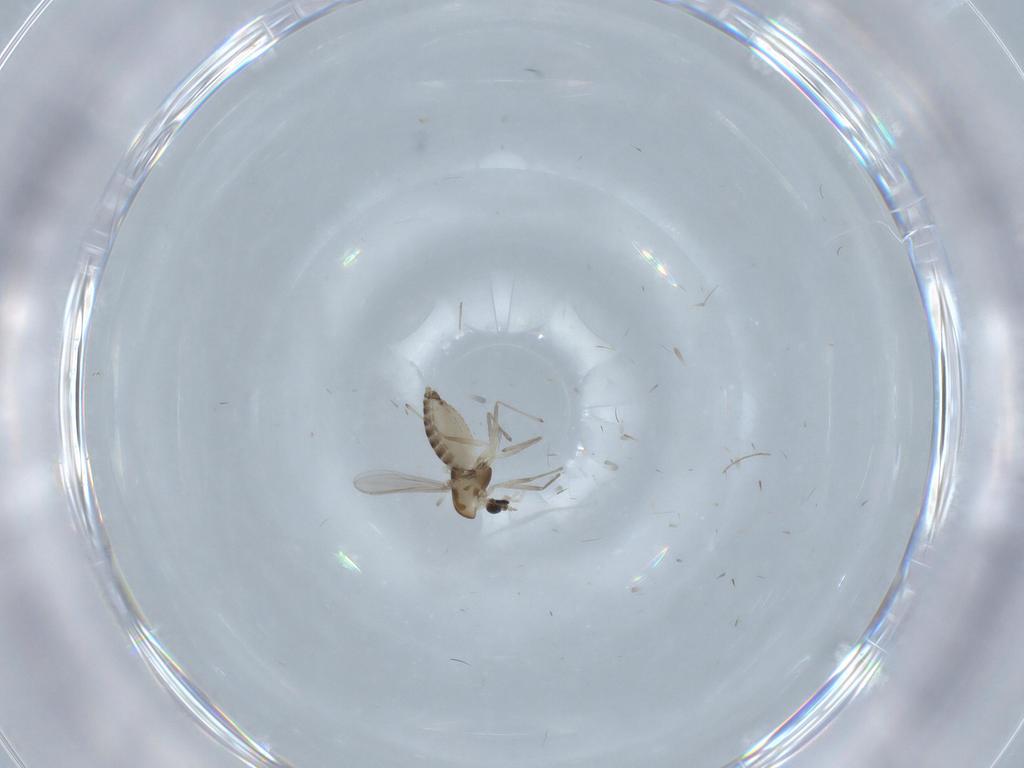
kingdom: Animalia
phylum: Arthropoda
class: Insecta
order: Diptera
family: Chironomidae
